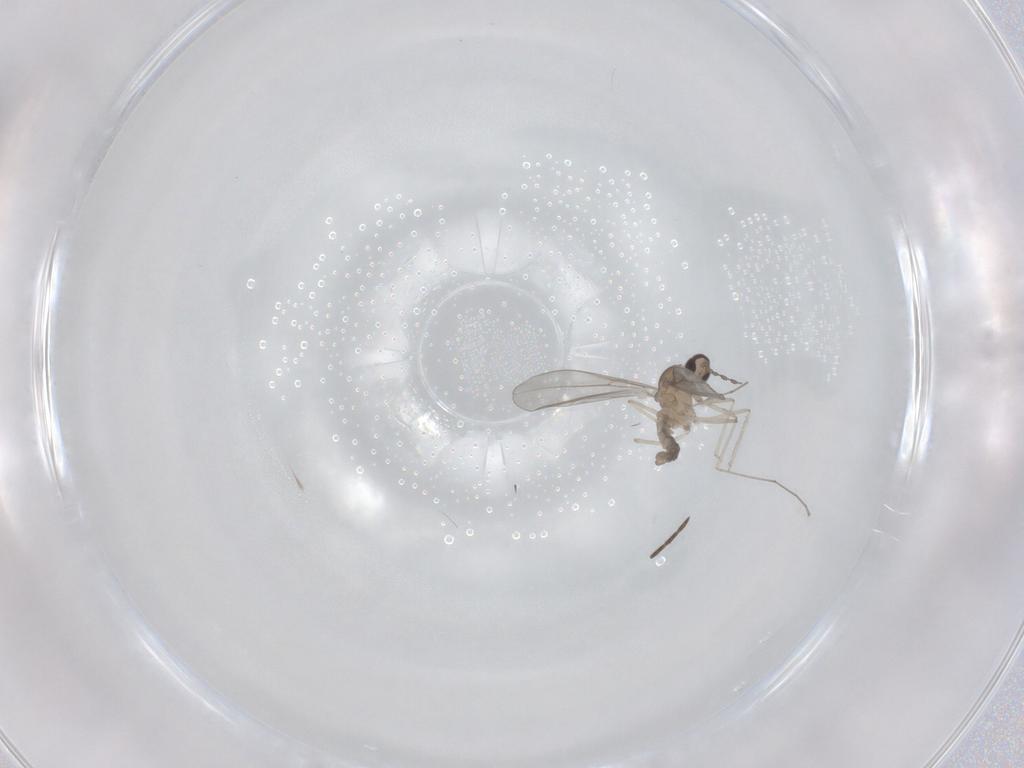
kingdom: Animalia
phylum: Arthropoda
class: Insecta
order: Diptera
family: Cecidomyiidae
